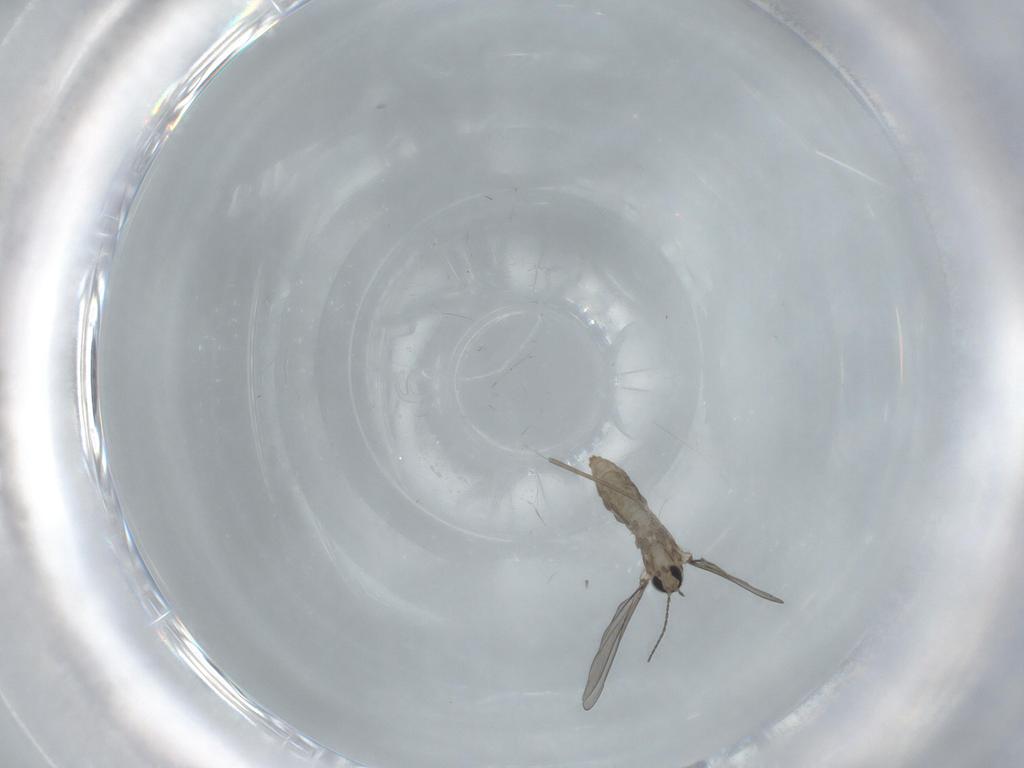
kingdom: Animalia
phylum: Arthropoda
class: Insecta
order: Diptera
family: Cecidomyiidae
